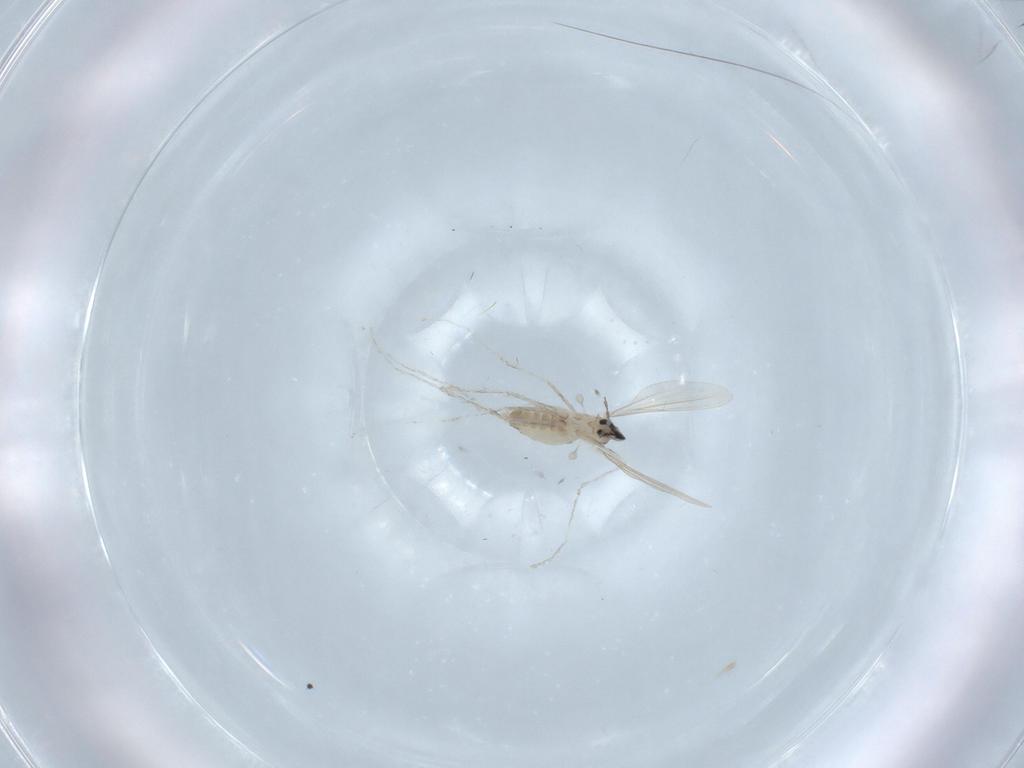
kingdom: Animalia
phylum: Arthropoda
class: Insecta
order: Diptera
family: Cecidomyiidae
